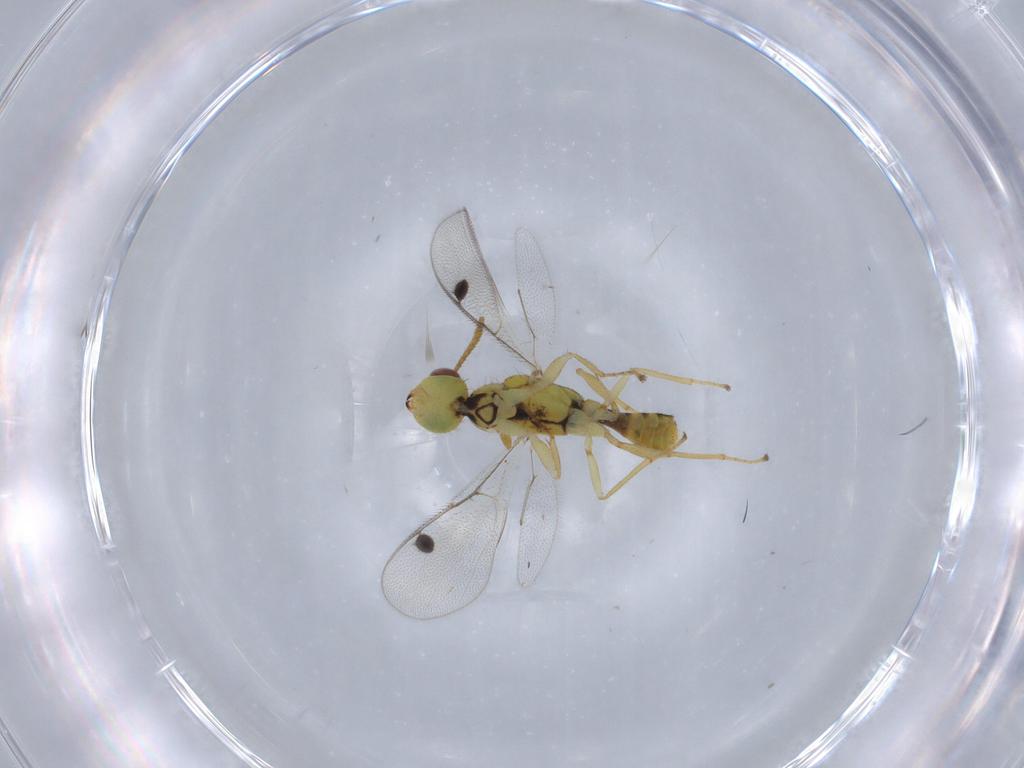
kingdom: Animalia
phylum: Arthropoda
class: Insecta
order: Hymenoptera
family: Megastigmidae
